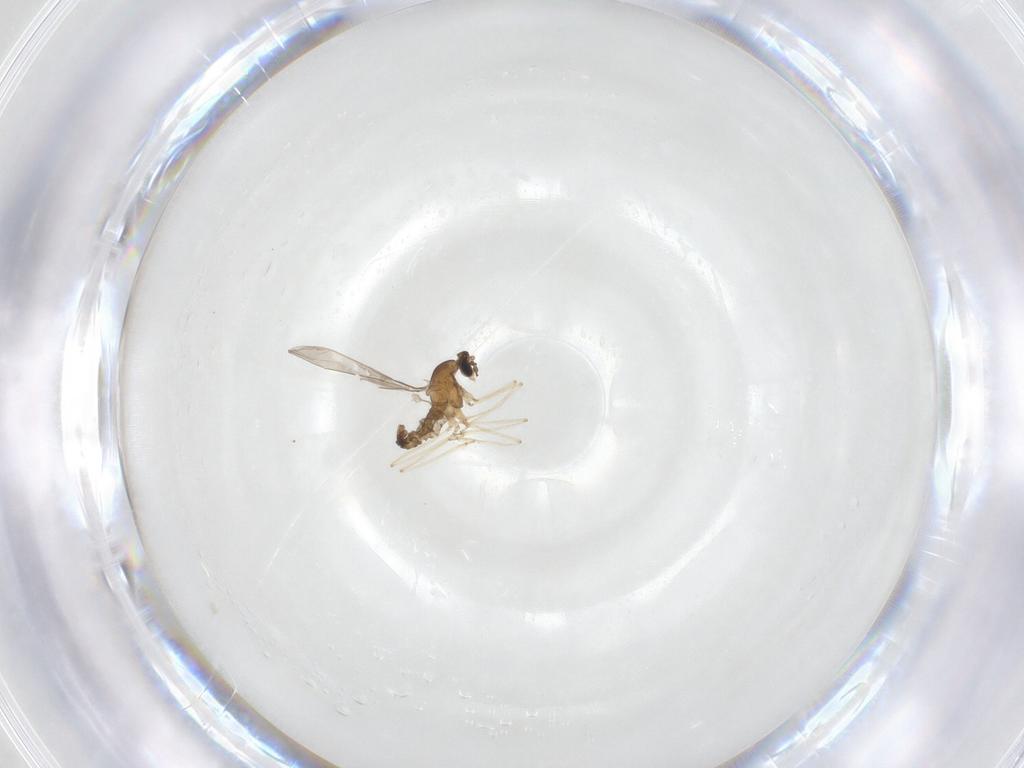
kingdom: Animalia
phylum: Arthropoda
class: Insecta
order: Diptera
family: Cecidomyiidae
